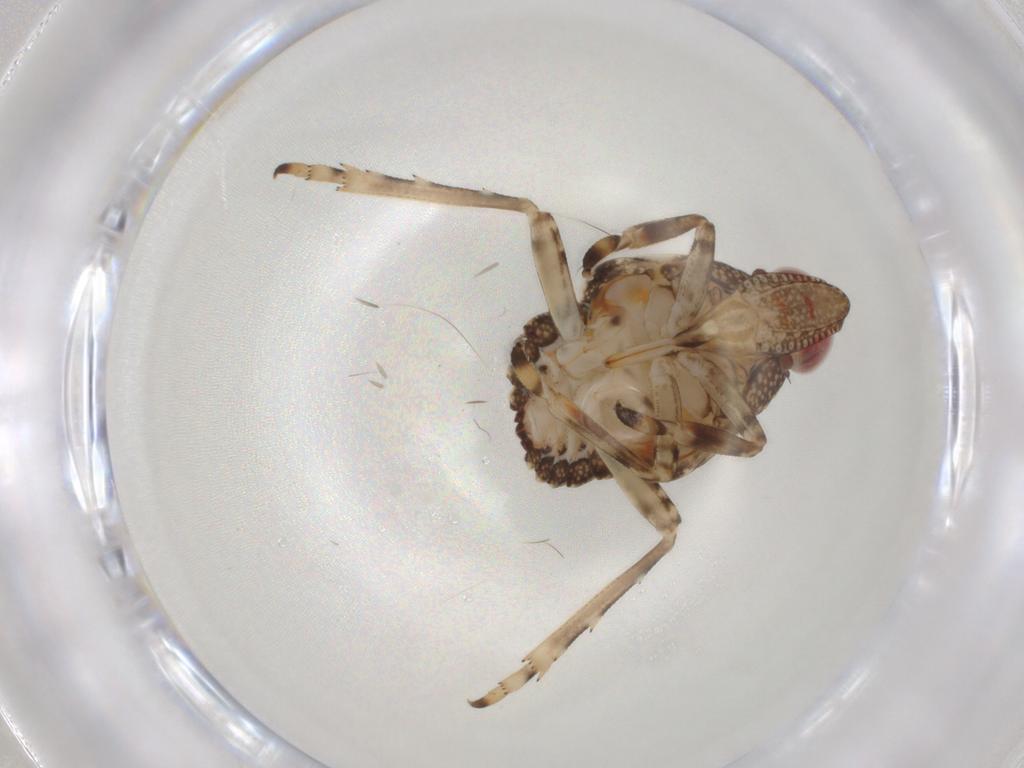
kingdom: Animalia
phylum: Arthropoda
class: Insecta
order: Hemiptera
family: Tropiduchidae
